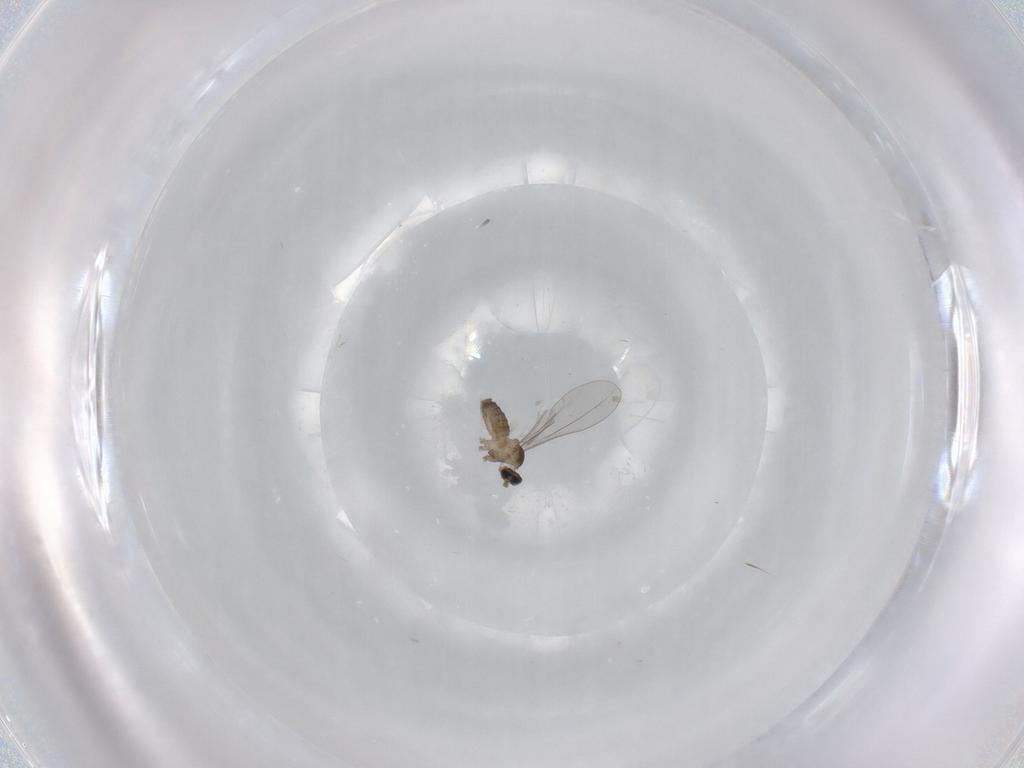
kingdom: Animalia
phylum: Arthropoda
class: Insecta
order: Diptera
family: Cecidomyiidae
